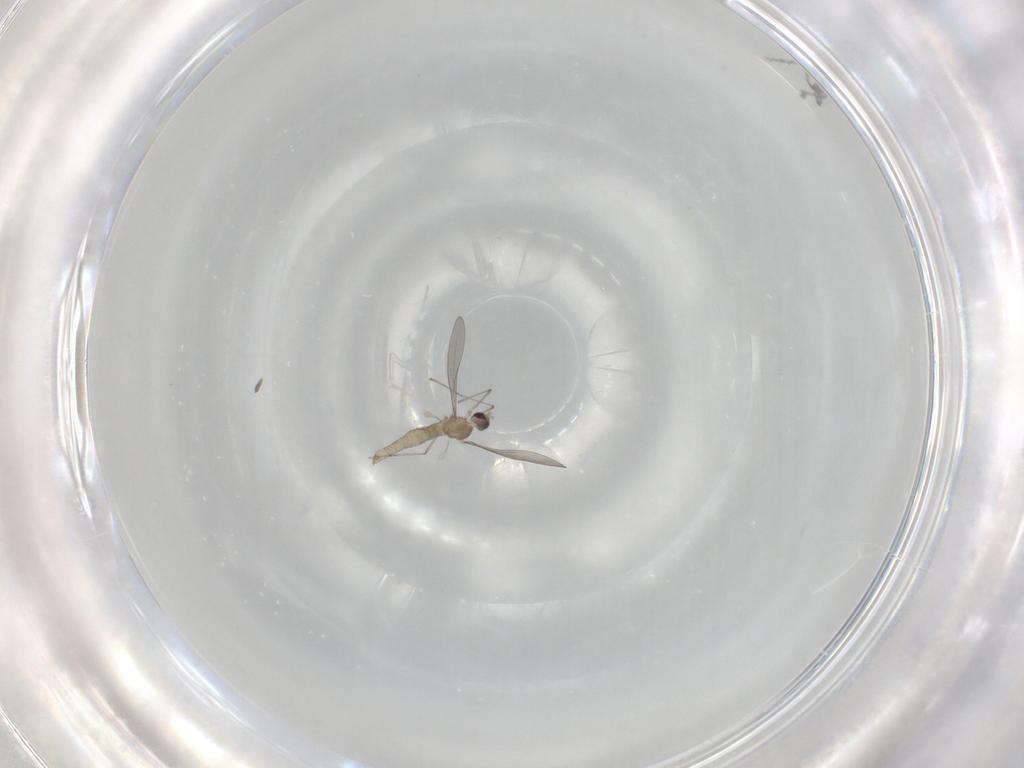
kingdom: Animalia
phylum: Arthropoda
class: Insecta
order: Diptera
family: Cecidomyiidae
